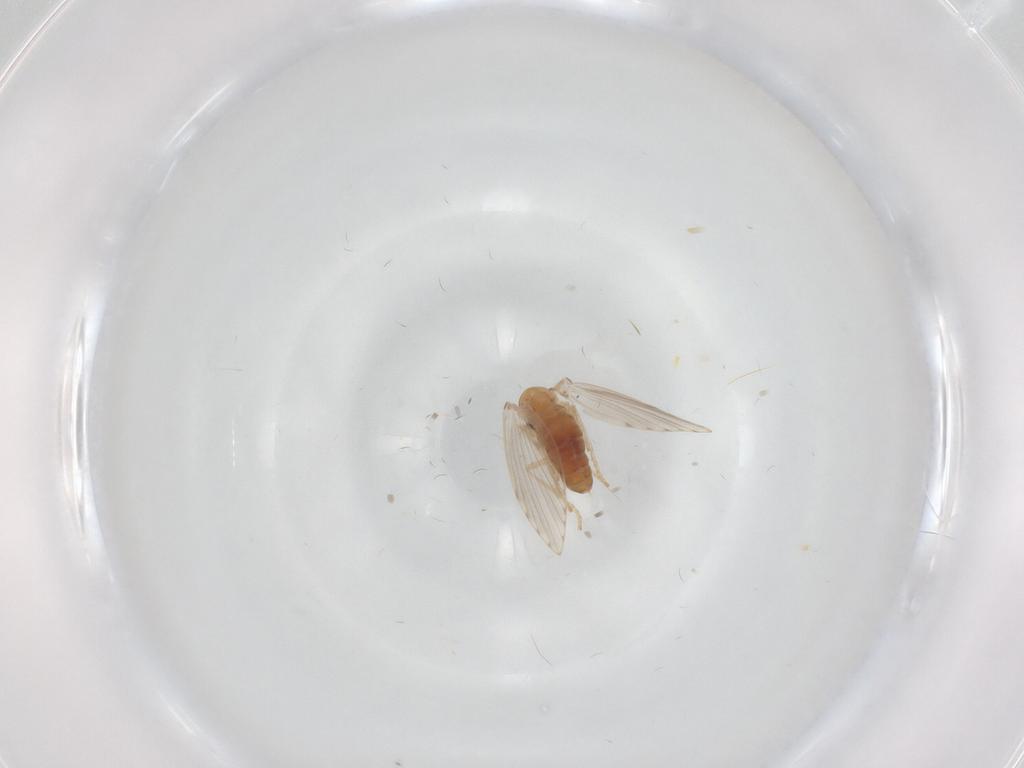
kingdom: Animalia
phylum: Arthropoda
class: Insecta
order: Diptera
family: Psychodidae
